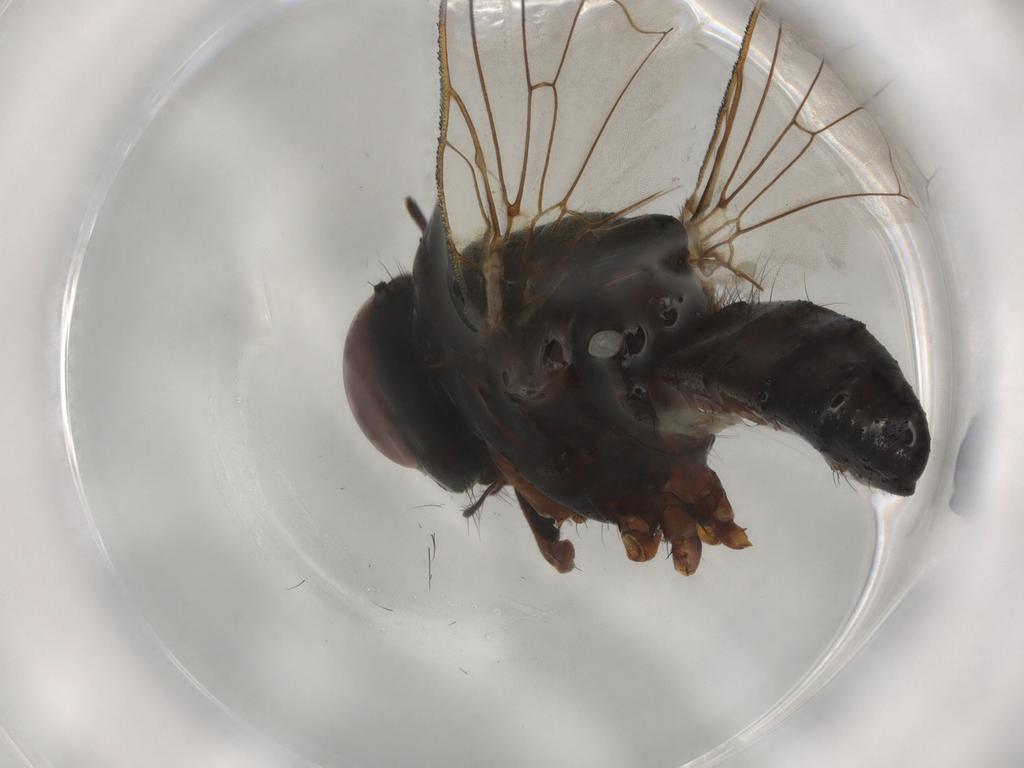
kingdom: Animalia
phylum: Arthropoda
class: Insecta
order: Diptera
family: Anthomyiidae
